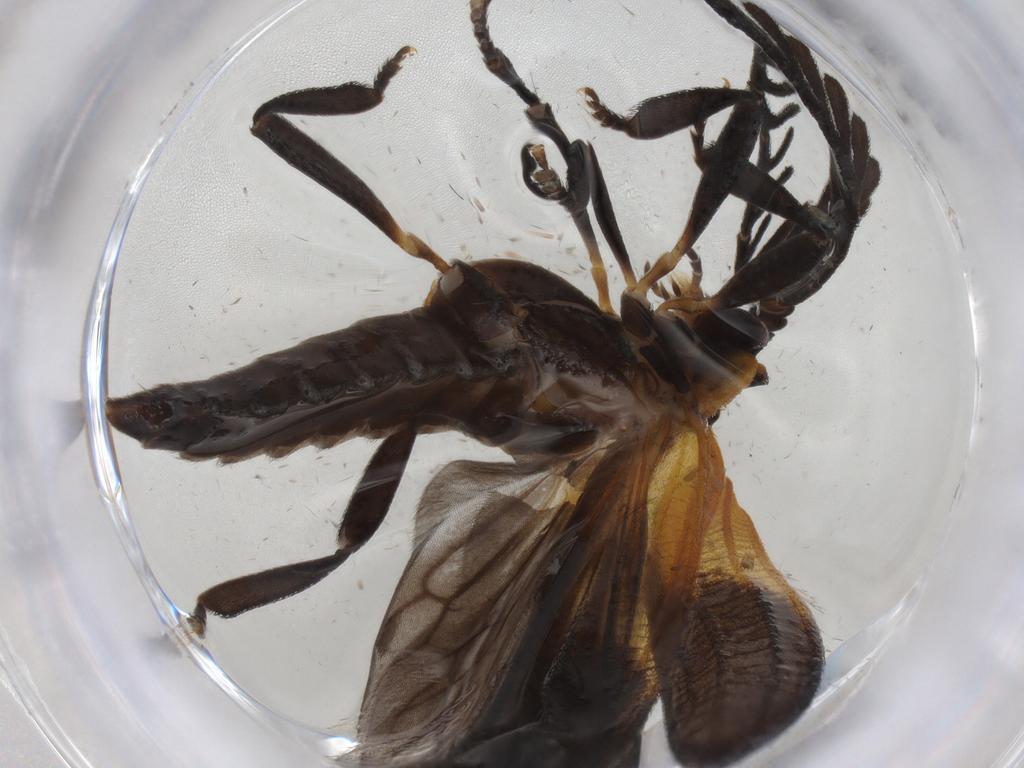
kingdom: Animalia
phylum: Arthropoda
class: Insecta
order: Coleoptera
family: Lycidae
